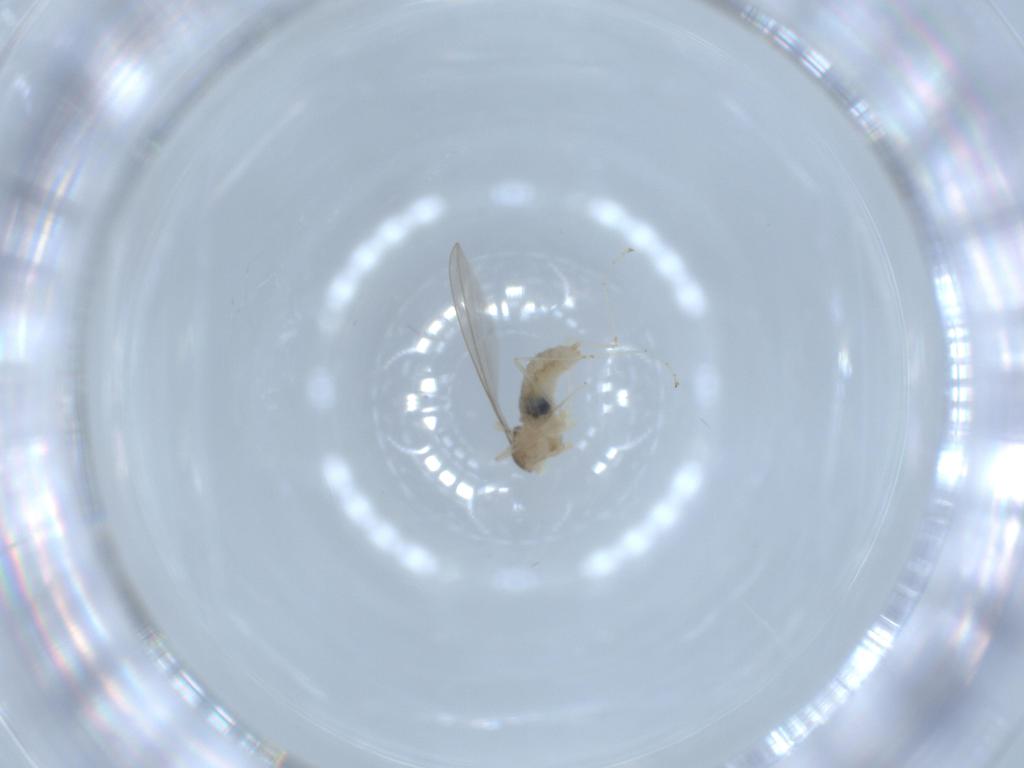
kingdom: Animalia
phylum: Arthropoda
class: Insecta
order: Diptera
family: Cecidomyiidae
